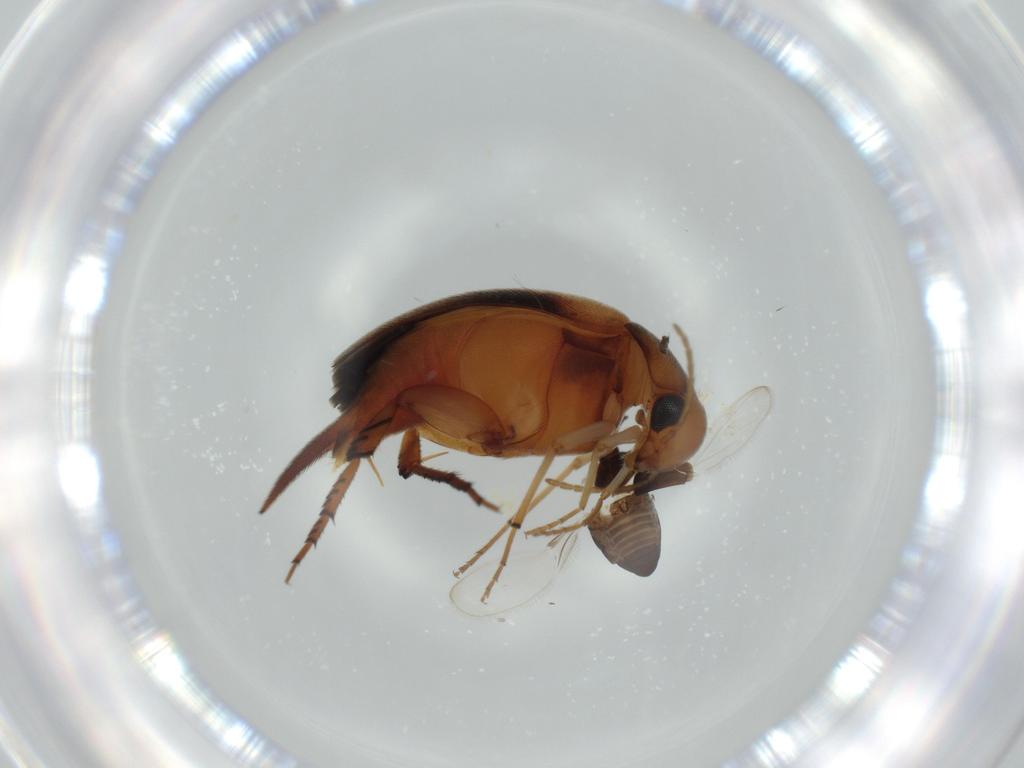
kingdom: Animalia
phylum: Arthropoda
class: Insecta
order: Coleoptera
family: Mordellidae
